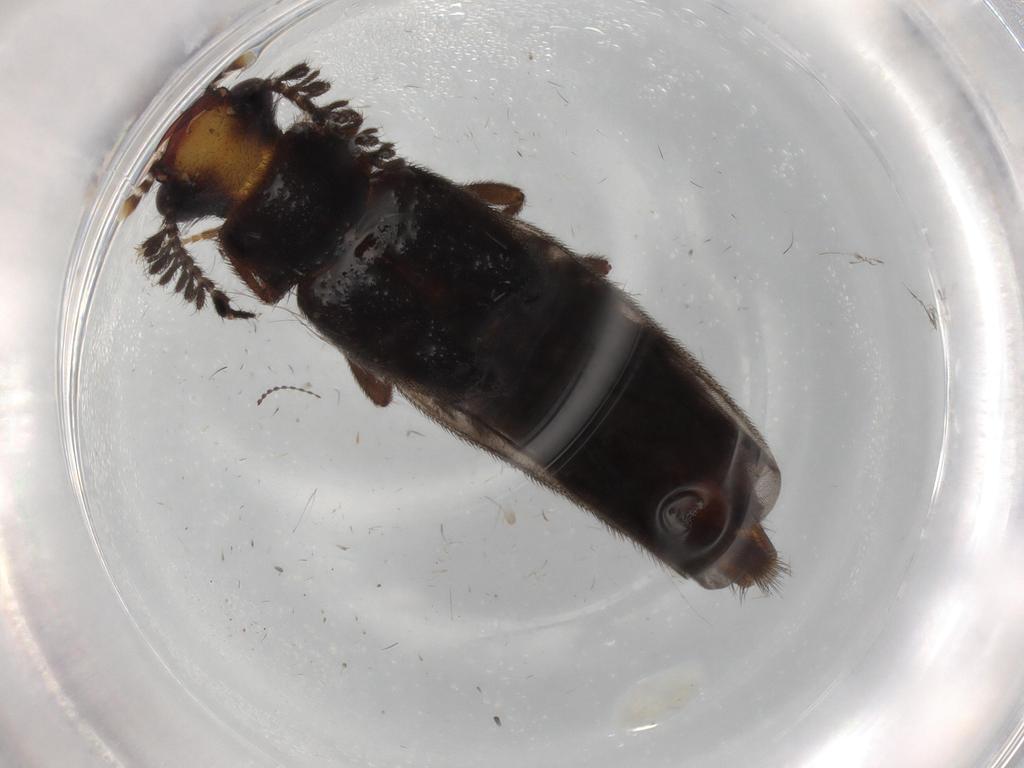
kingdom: Animalia
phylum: Arthropoda
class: Insecta
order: Coleoptera
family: Phengodidae
